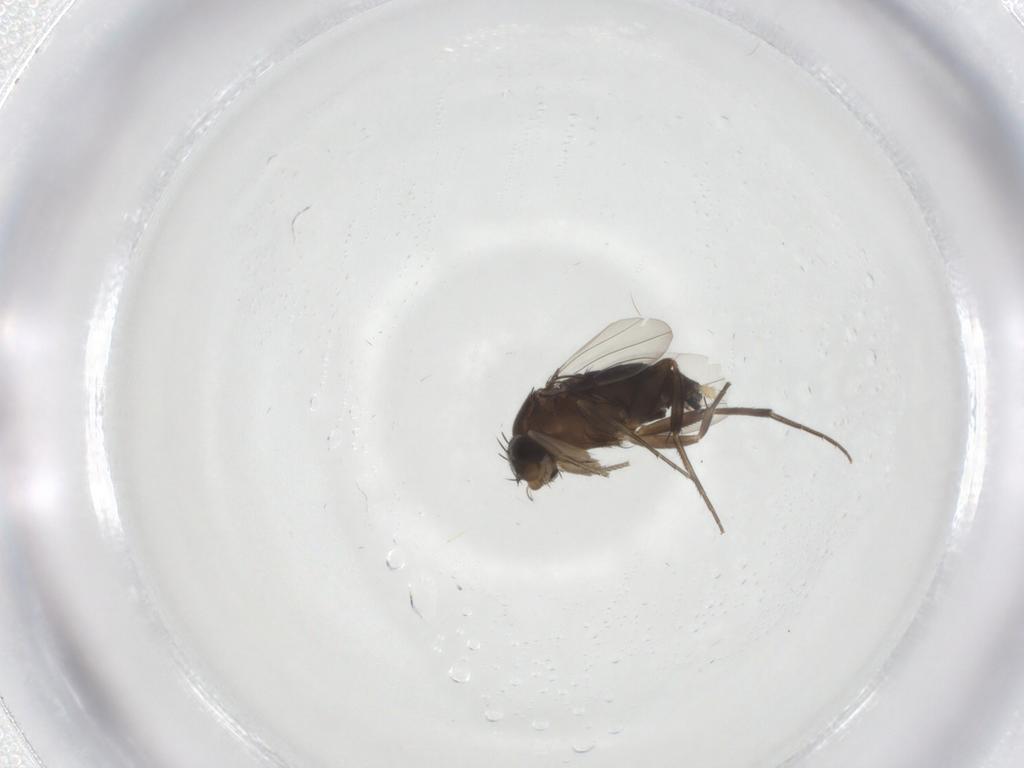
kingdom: Animalia
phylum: Arthropoda
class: Insecta
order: Diptera
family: Phoridae
